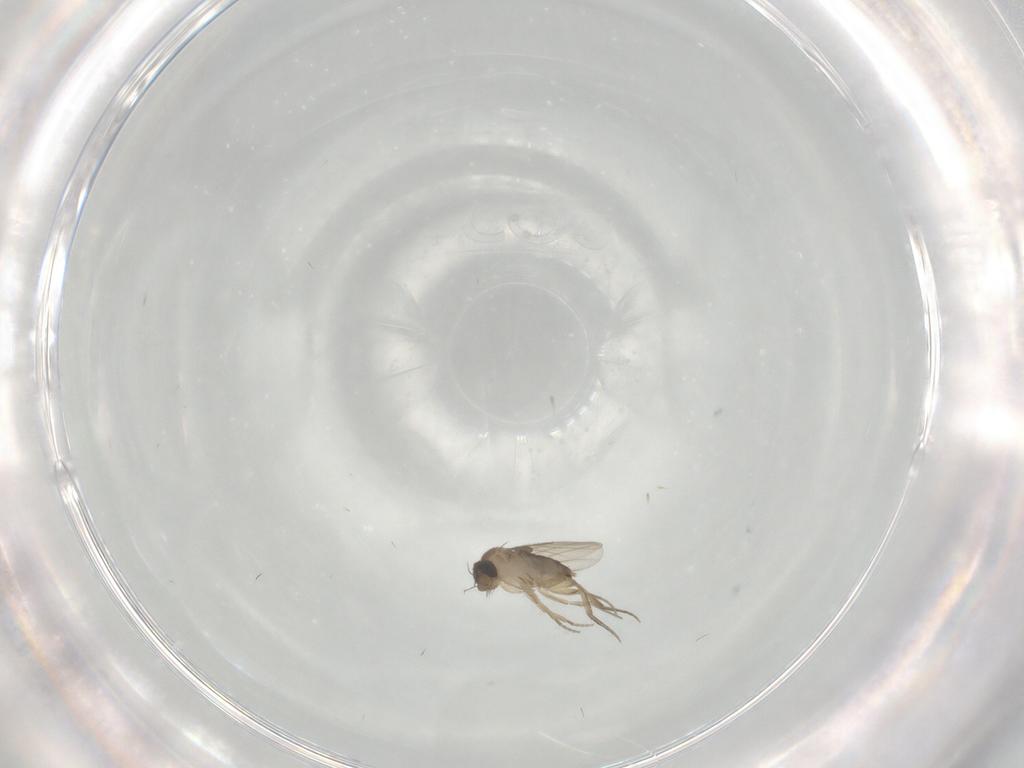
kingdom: Animalia
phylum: Arthropoda
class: Insecta
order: Diptera
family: Phoridae
